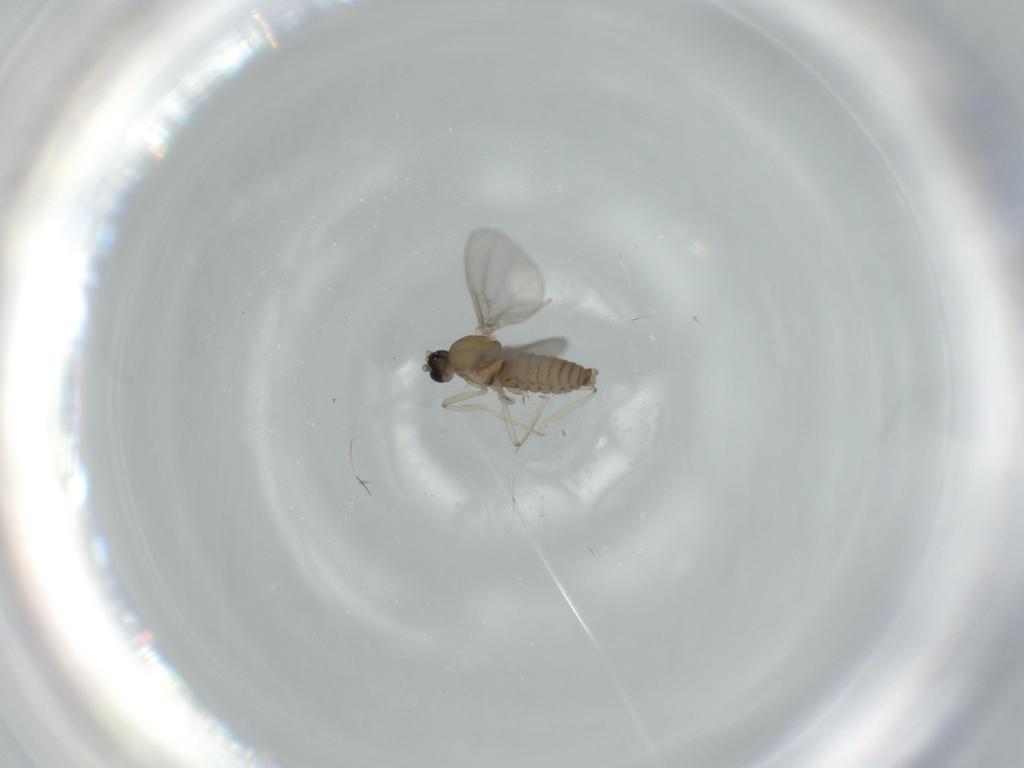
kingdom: Animalia
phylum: Arthropoda
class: Insecta
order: Diptera
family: Cecidomyiidae
